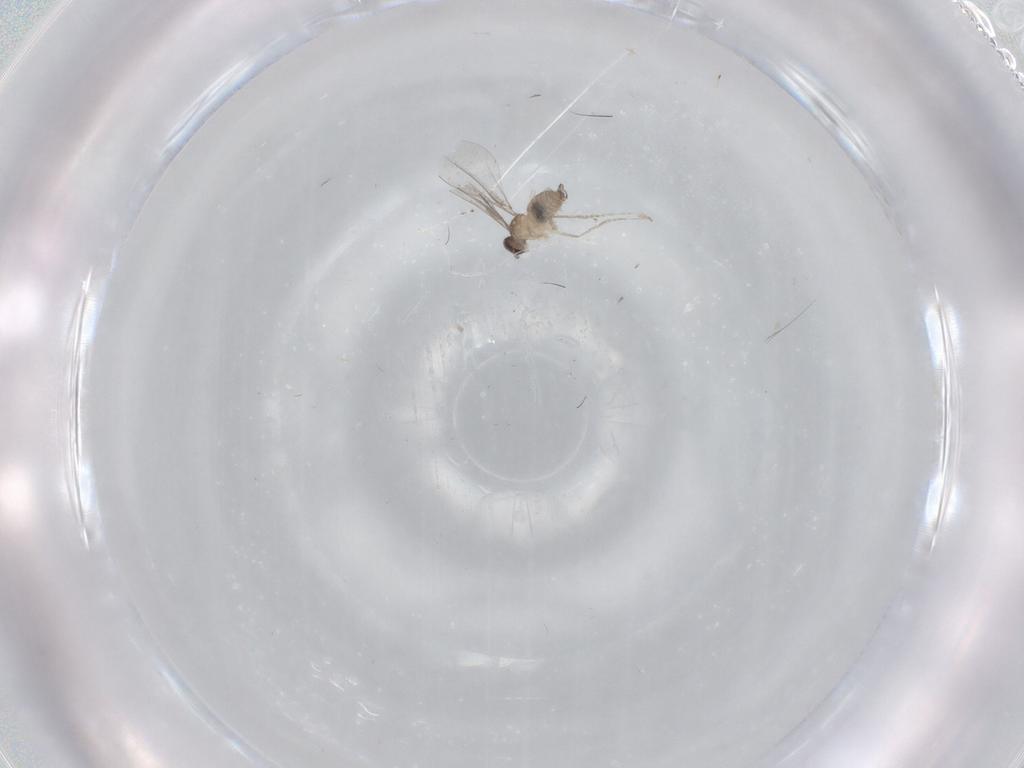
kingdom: Animalia
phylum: Arthropoda
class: Insecta
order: Diptera
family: Cecidomyiidae
